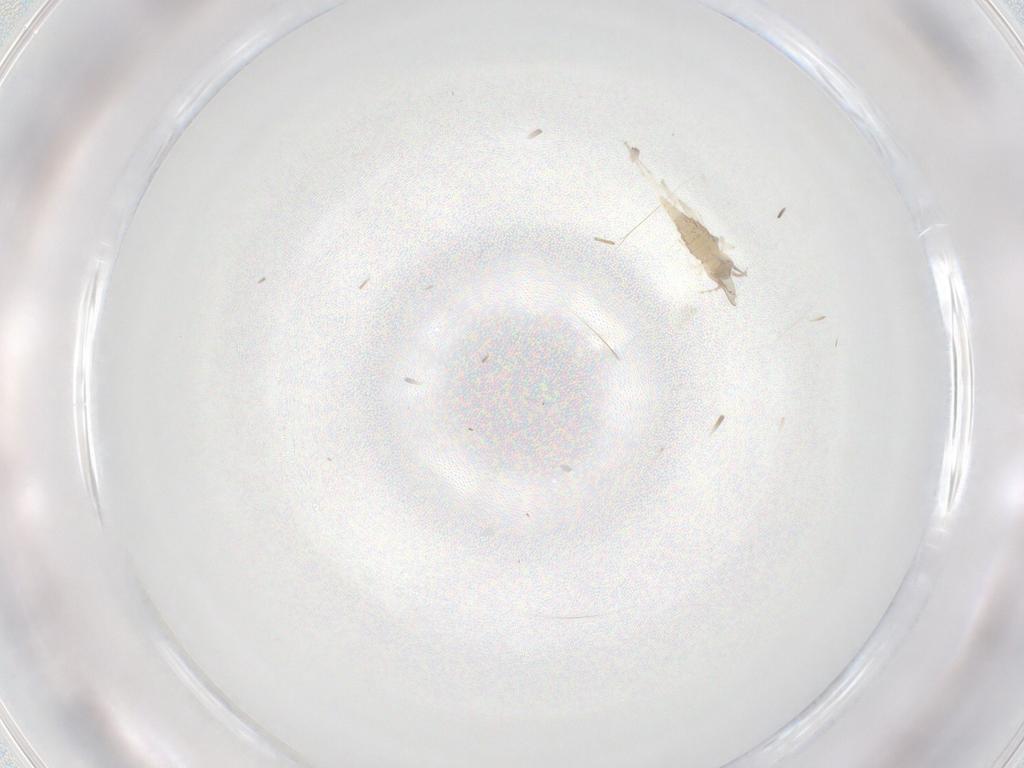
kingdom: Animalia
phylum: Arthropoda
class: Insecta
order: Diptera
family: Cecidomyiidae
